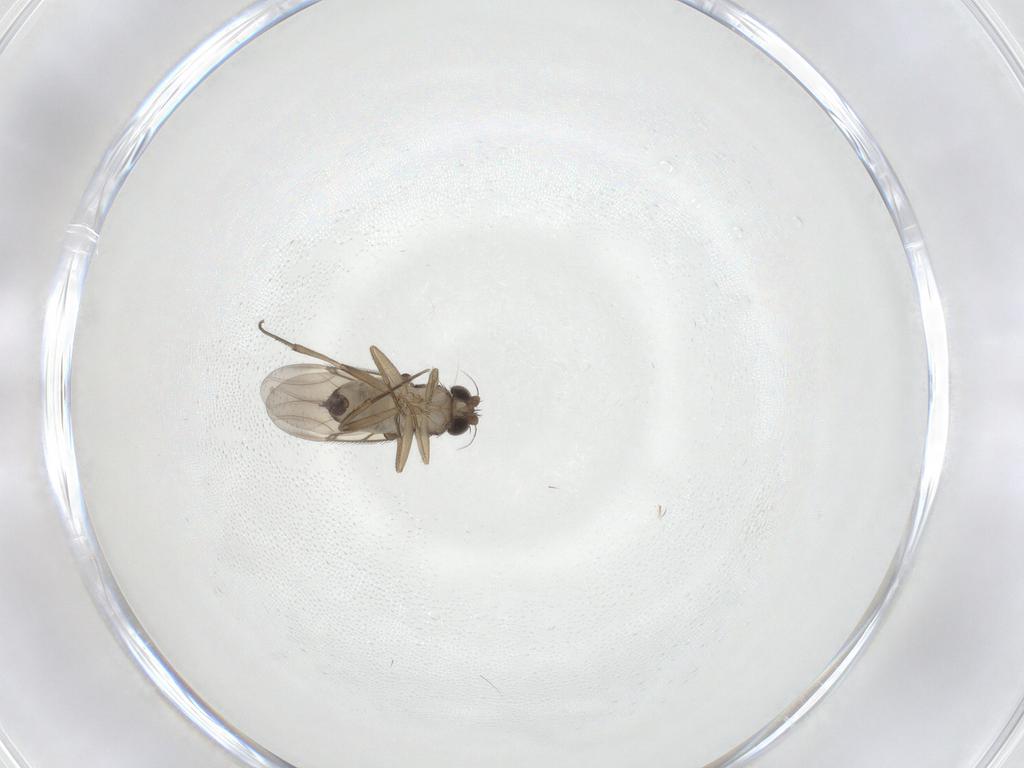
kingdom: Animalia
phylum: Arthropoda
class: Insecta
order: Diptera
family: Phoridae
